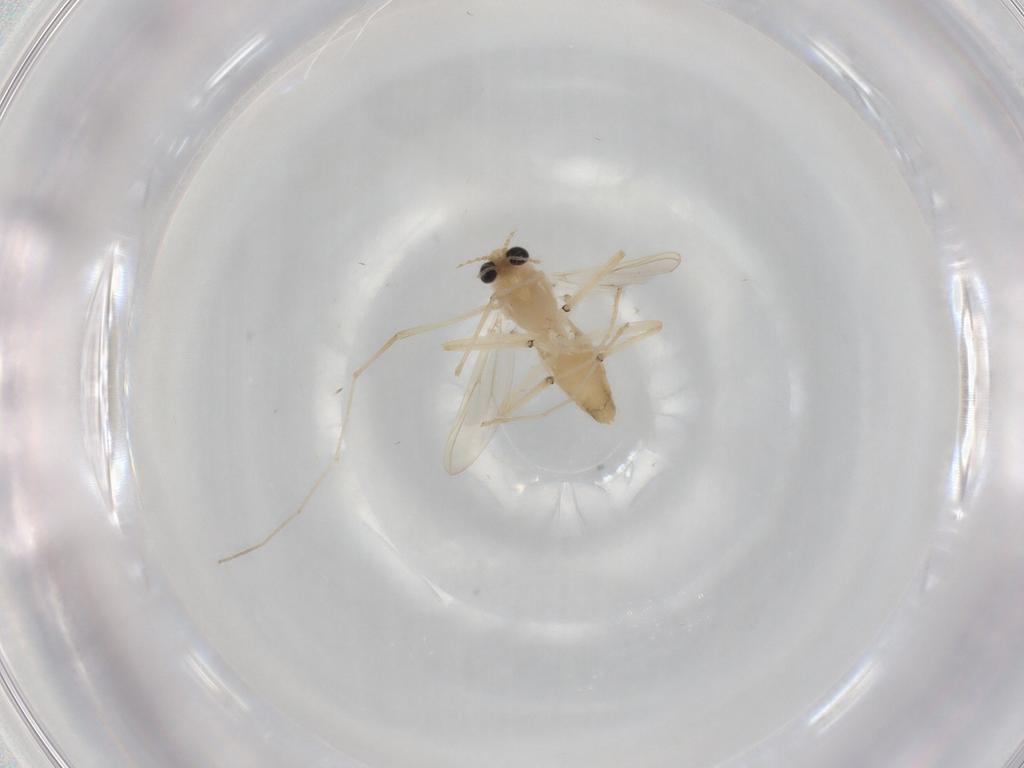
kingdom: Animalia
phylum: Arthropoda
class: Insecta
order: Diptera
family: Chironomidae
